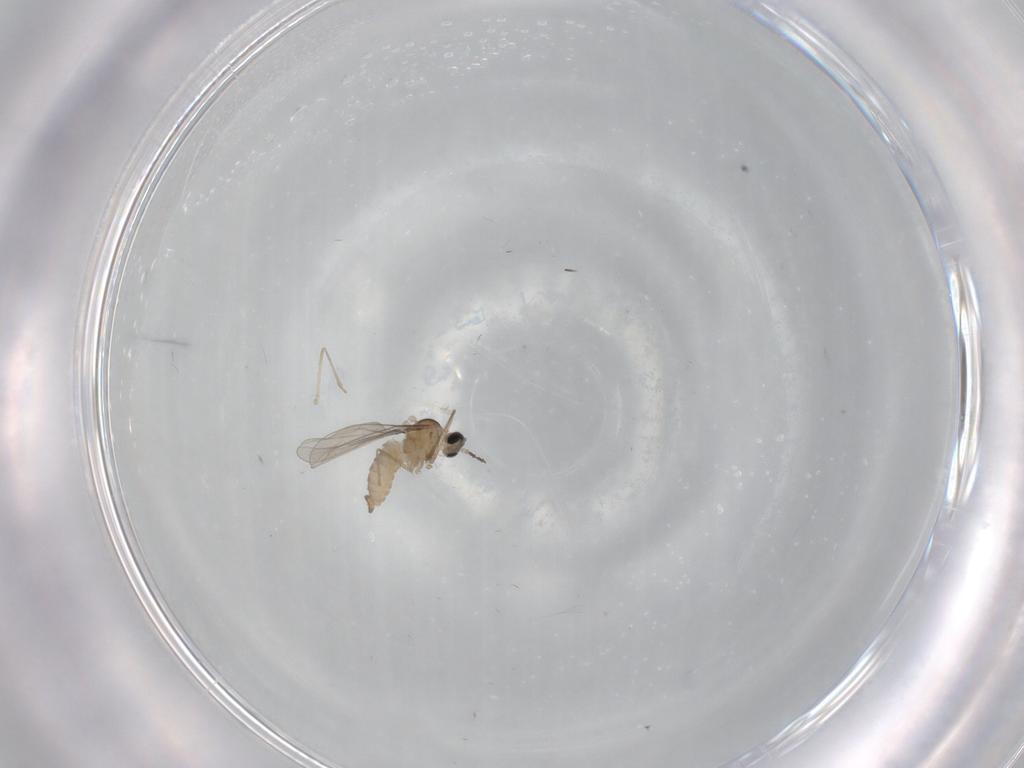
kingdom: Animalia
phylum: Arthropoda
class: Insecta
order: Diptera
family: Cecidomyiidae
